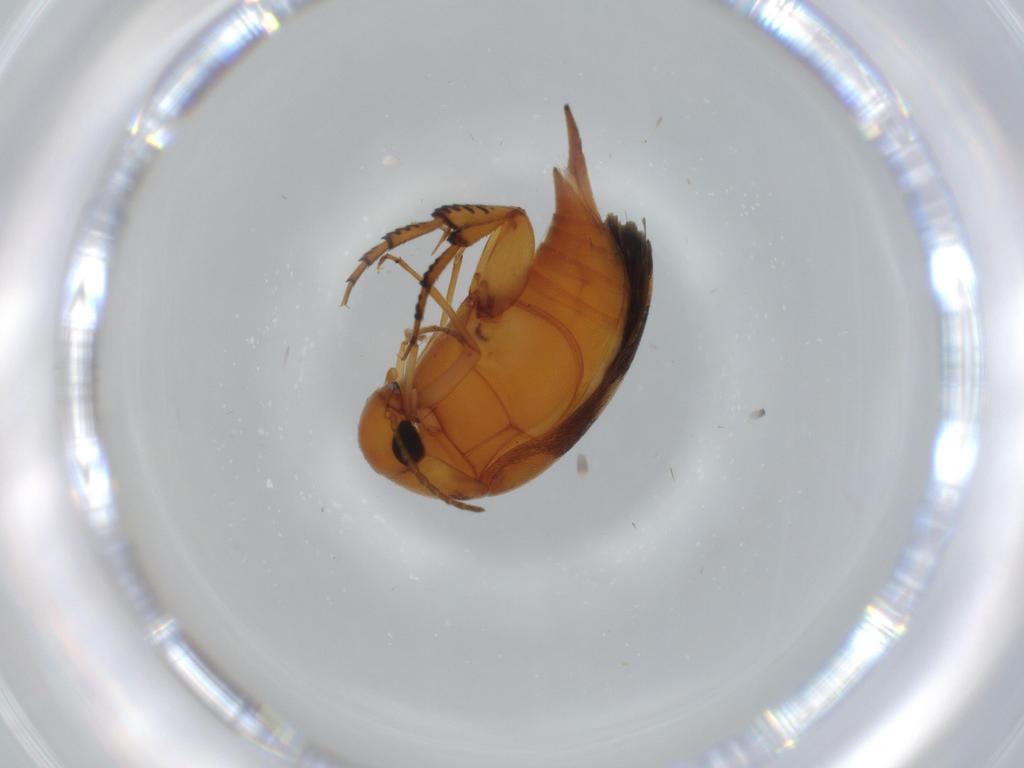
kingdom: Animalia
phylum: Arthropoda
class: Insecta
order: Coleoptera
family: Mordellidae
